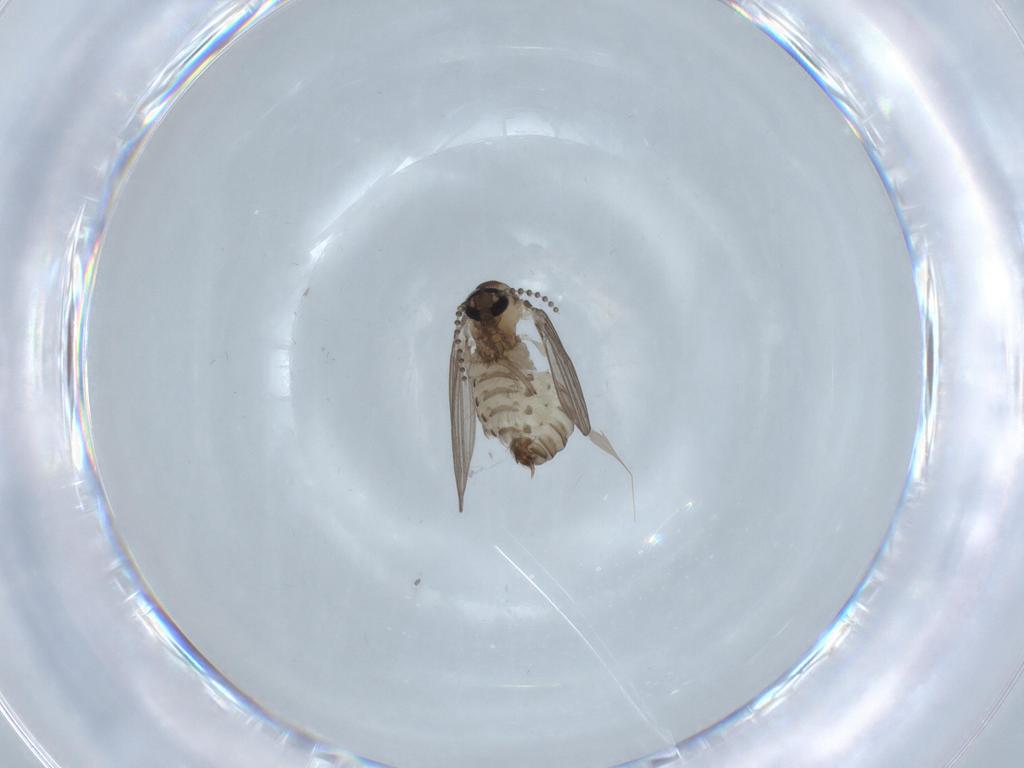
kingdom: Animalia
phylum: Arthropoda
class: Insecta
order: Diptera
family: Psychodidae
